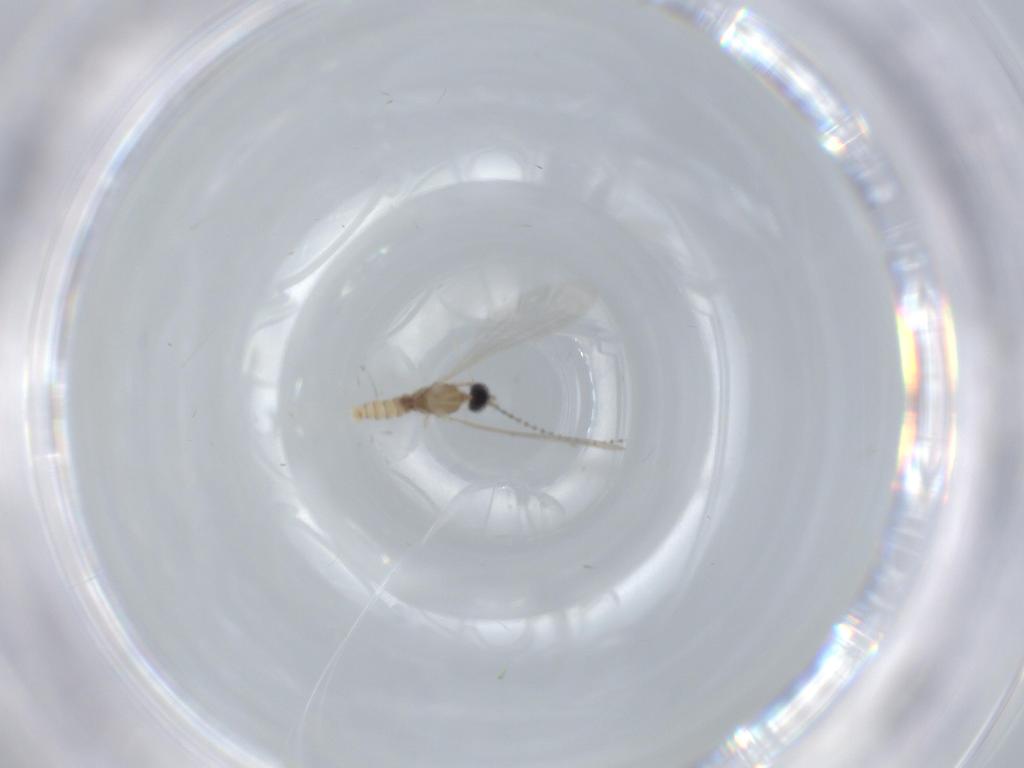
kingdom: Animalia
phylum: Arthropoda
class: Insecta
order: Diptera
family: Cecidomyiidae
